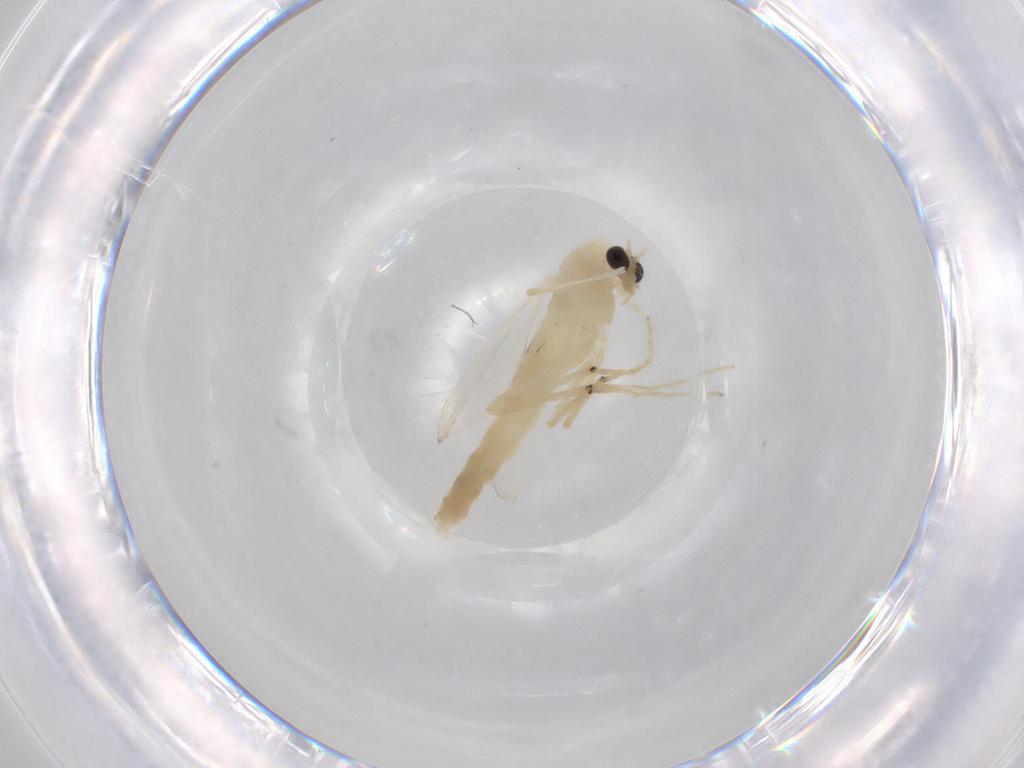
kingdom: Animalia
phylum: Arthropoda
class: Insecta
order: Diptera
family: Chironomidae
